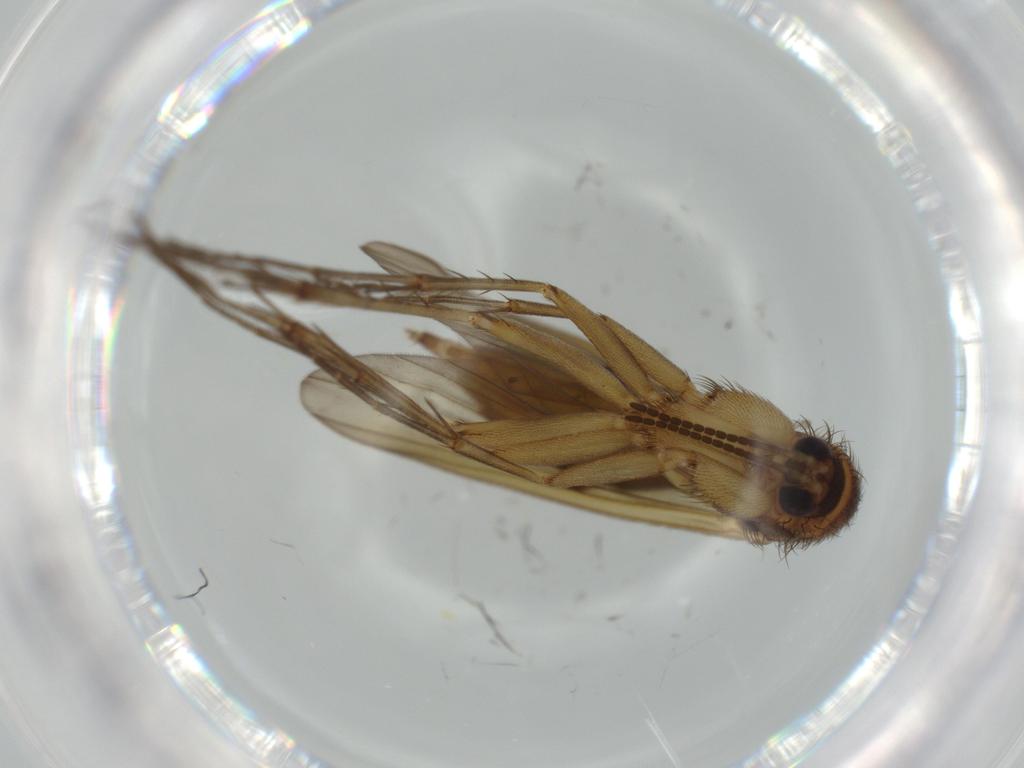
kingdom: Animalia
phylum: Arthropoda
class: Insecta
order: Diptera
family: Mycetophilidae
